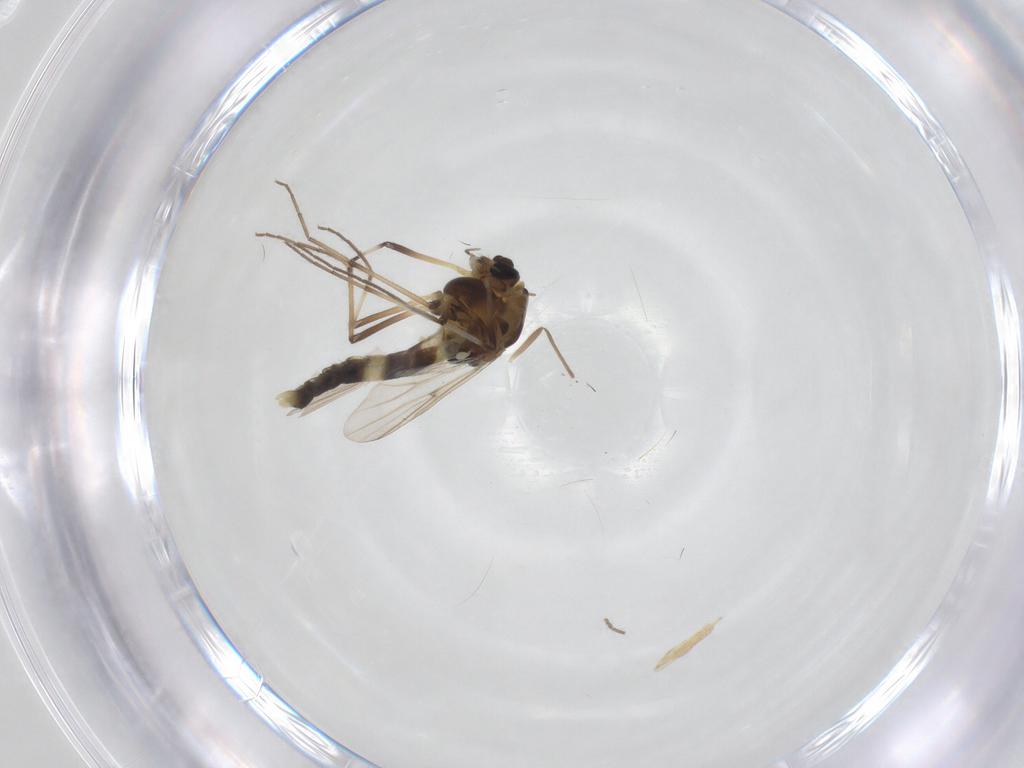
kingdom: Animalia
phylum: Arthropoda
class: Insecta
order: Diptera
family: Chironomidae
